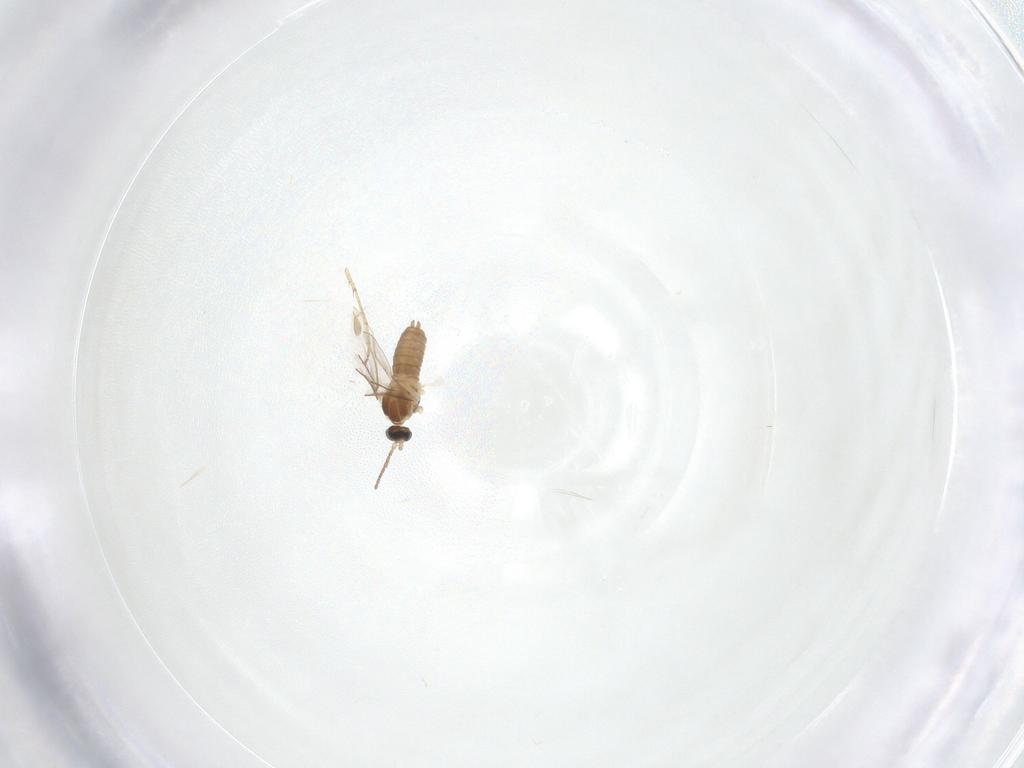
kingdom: Animalia
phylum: Arthropoda
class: Insecta
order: Diptera
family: Cecidomyiidae
